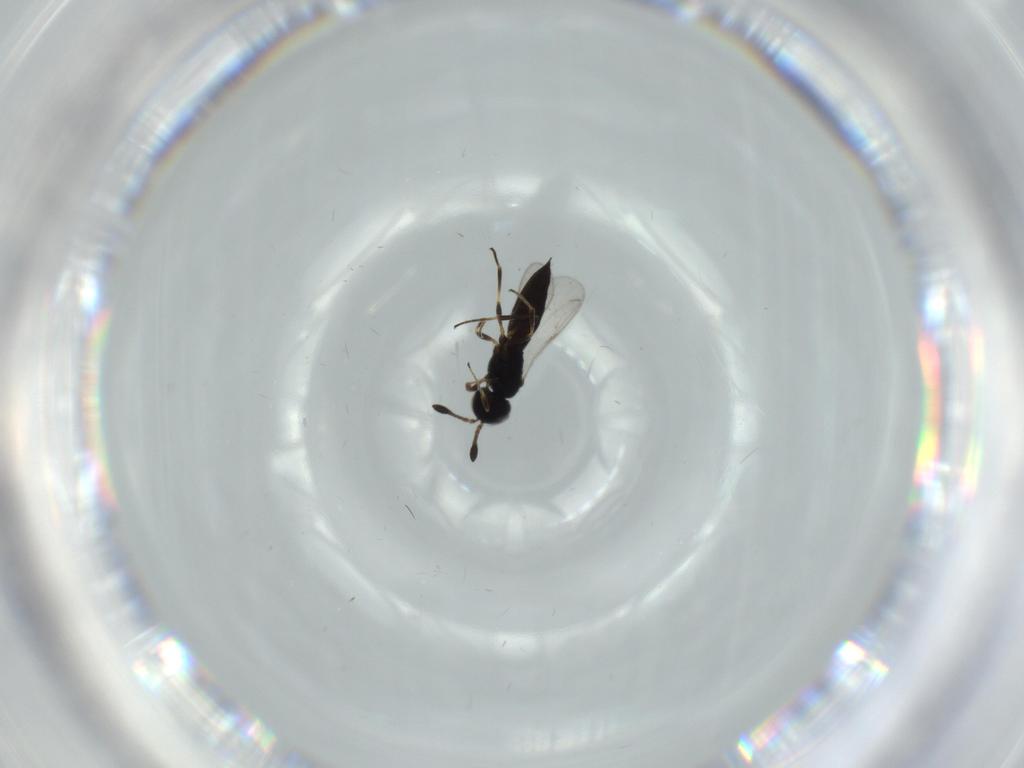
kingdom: Animalia
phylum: Arthropoda
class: Insecta
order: Hymenoptera
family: Scelionidae
